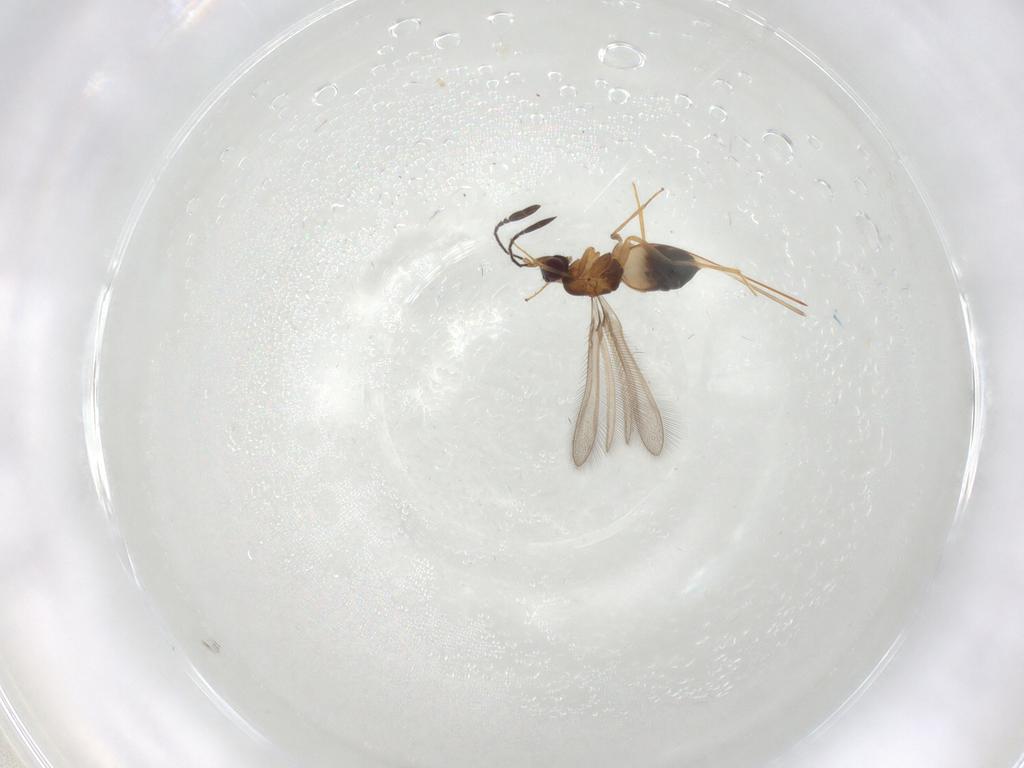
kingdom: Animalia
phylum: Arthropoda
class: Insecta
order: Hymenoptera
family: Mymaridae
